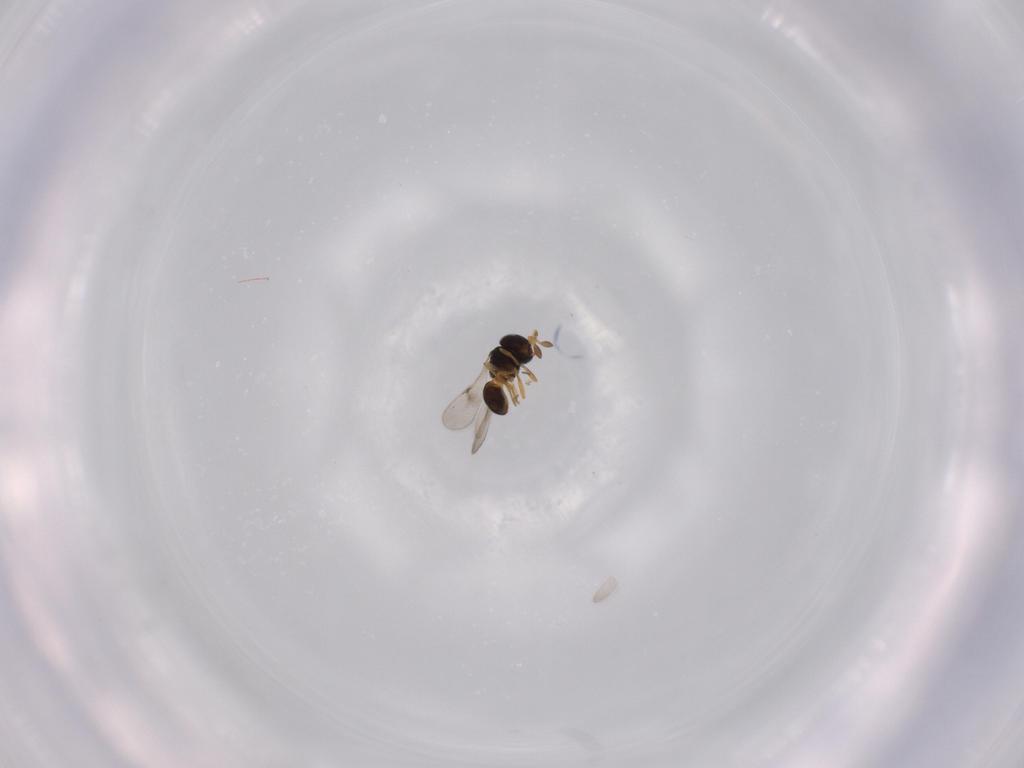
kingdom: Animalia
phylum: Arthropoda
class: Insecta
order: Hymenoptera
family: Scelionidae
